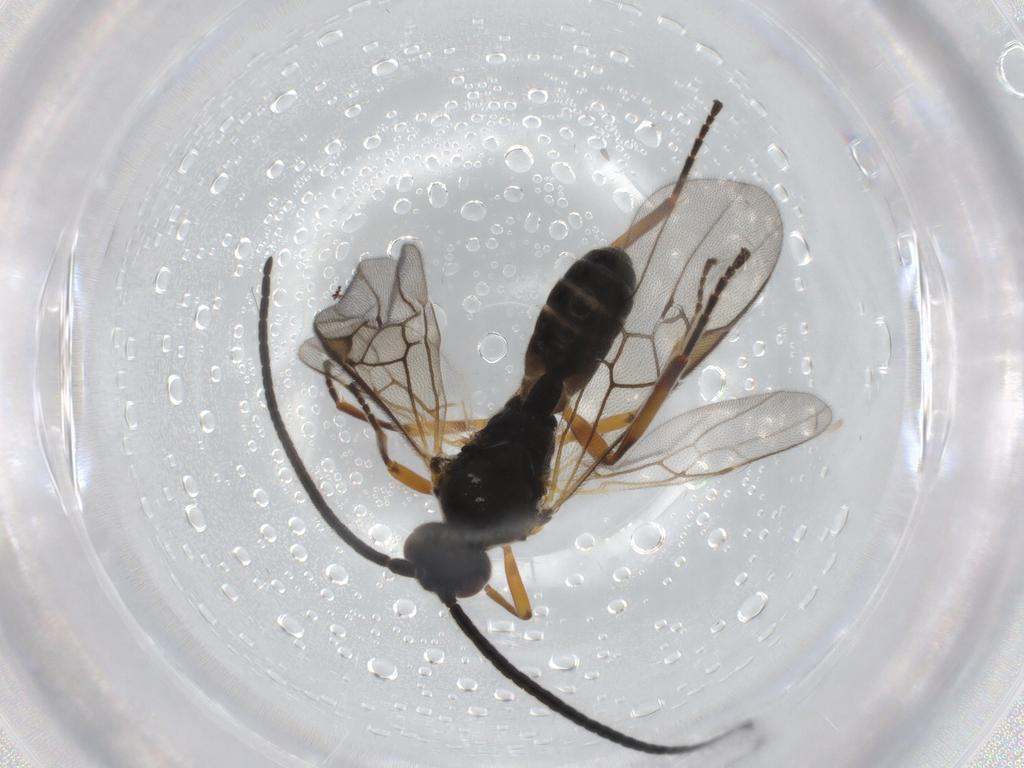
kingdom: Animalia
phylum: Arthropoda
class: Insecta
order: Hymenoptera
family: Braconidae
